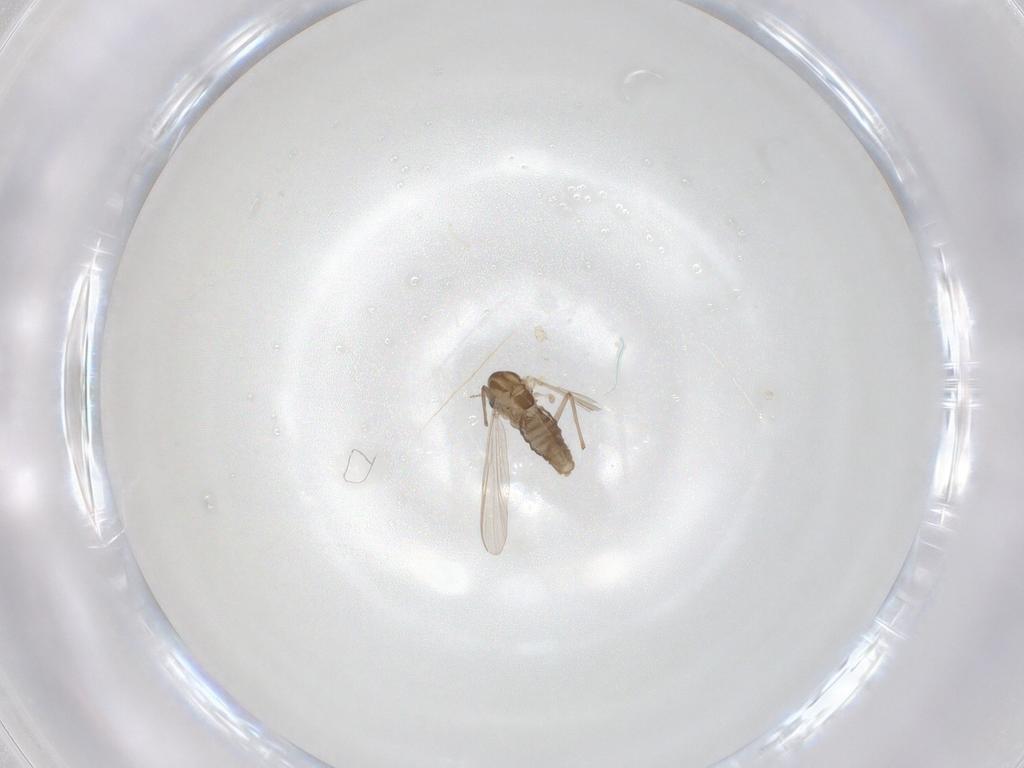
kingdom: Animalia
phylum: Arthropoda
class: Insecta
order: Diptera
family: Chironomidae
